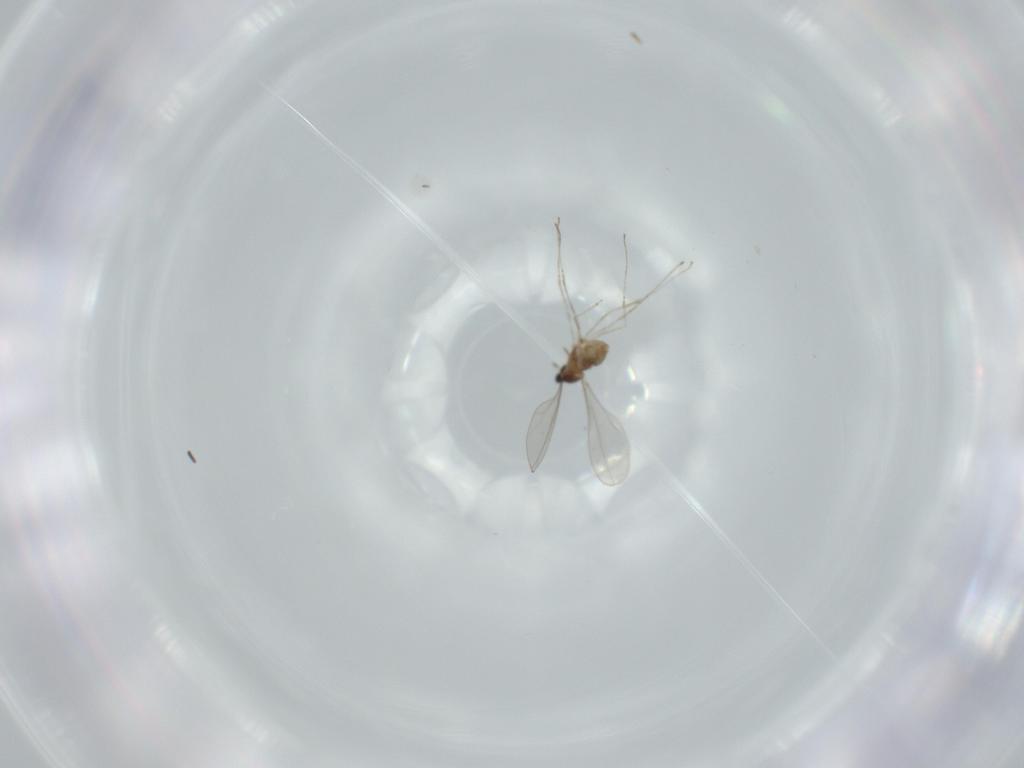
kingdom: Animalia
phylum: Arthropoda
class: Insecta
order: Diptera
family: Cecidomyiidae
